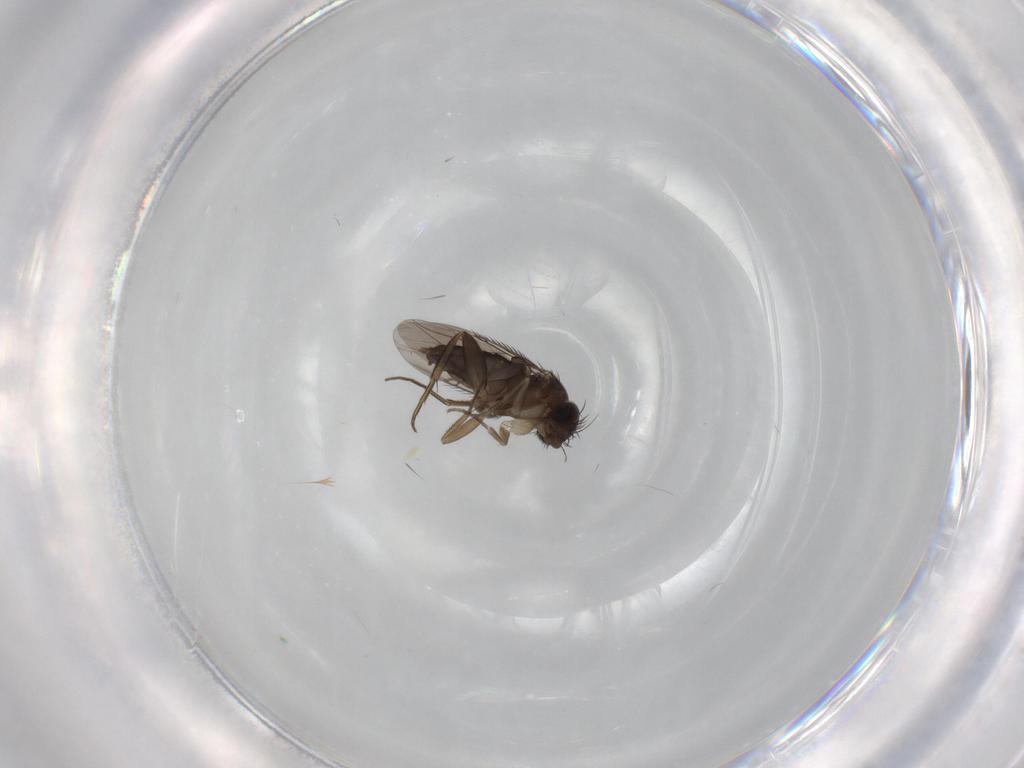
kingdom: Animalia
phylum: Arthropoda
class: Insecta
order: Diptera
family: Phoridae
